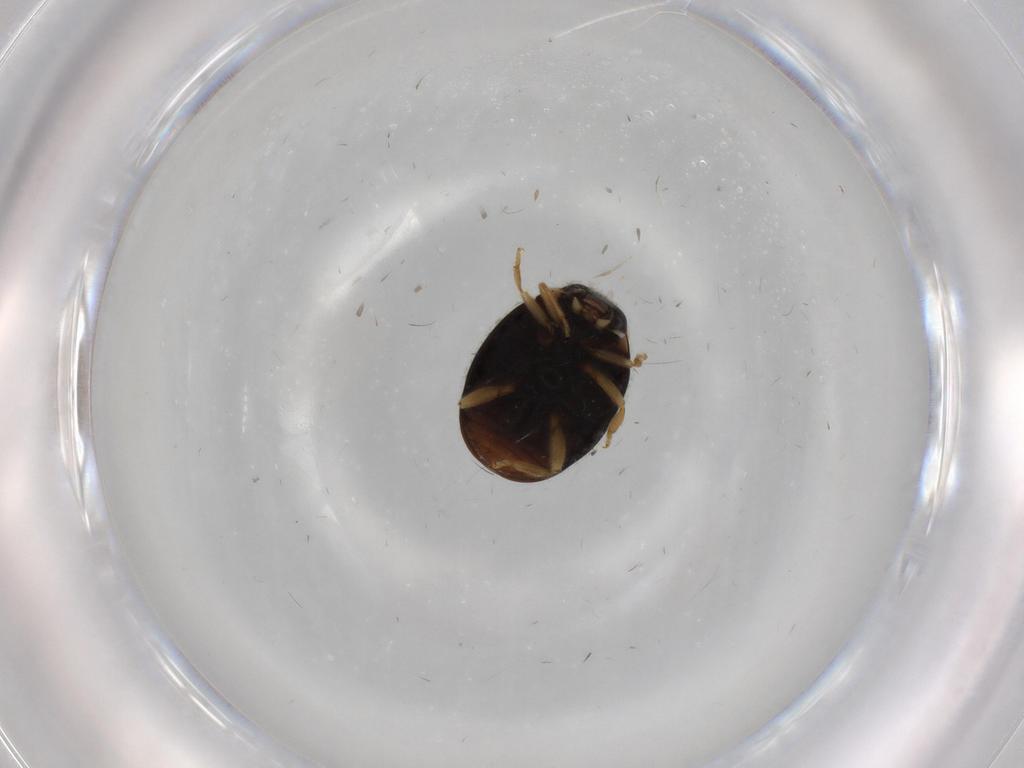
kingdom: Animalia
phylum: Arthropoda
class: Insecta
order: Coleoptera
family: Coccinellidae
